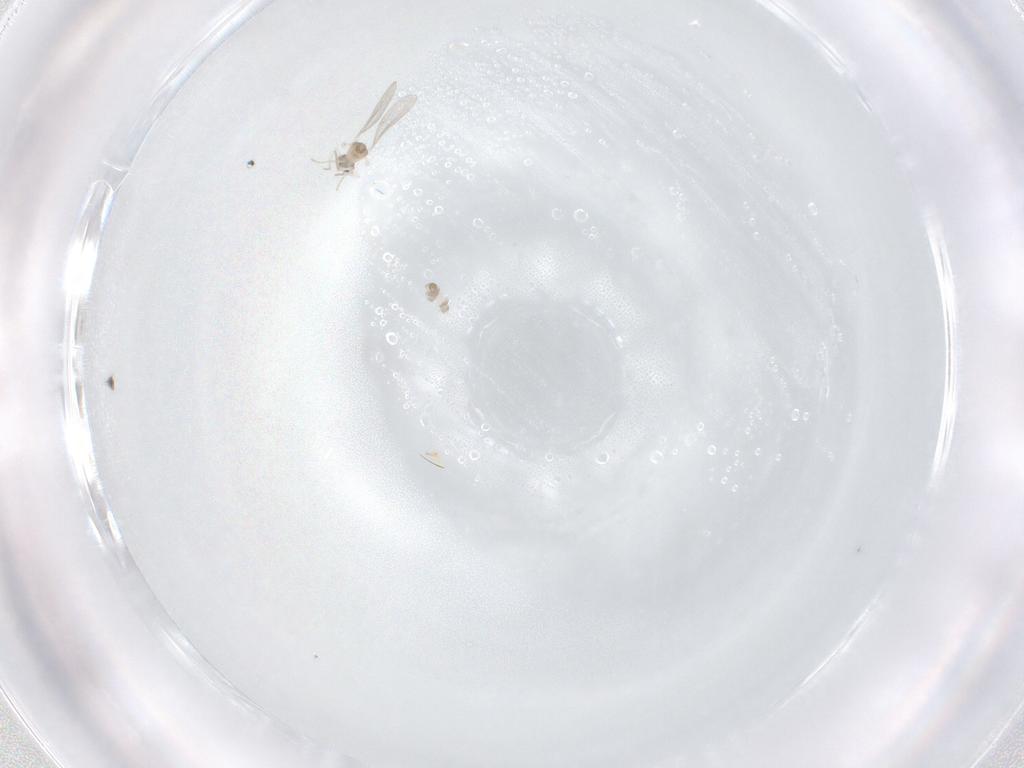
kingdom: Animalia
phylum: Arthropoda
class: Insecta
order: Diptera
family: Cecidomyiidae
